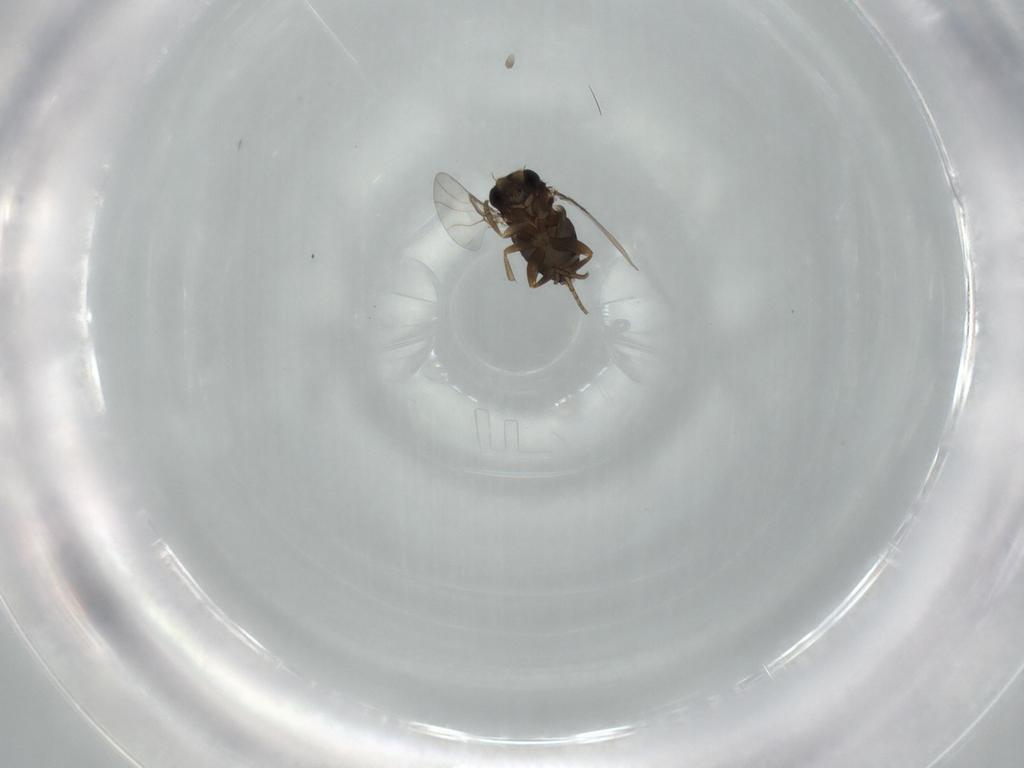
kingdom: Animalia
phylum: Arthropoda
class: Insecta
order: Diptera
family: Phoridae
